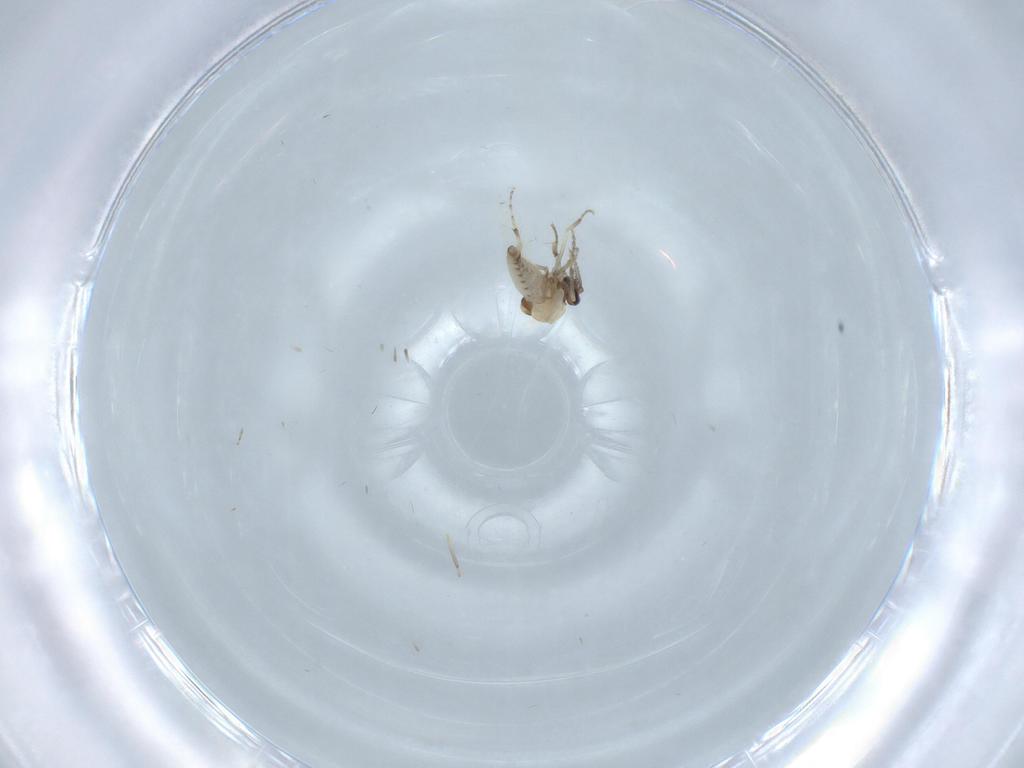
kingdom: Animalia
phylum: Arthropoda
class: Insecta
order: Diptera
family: Ceratopogonidae
